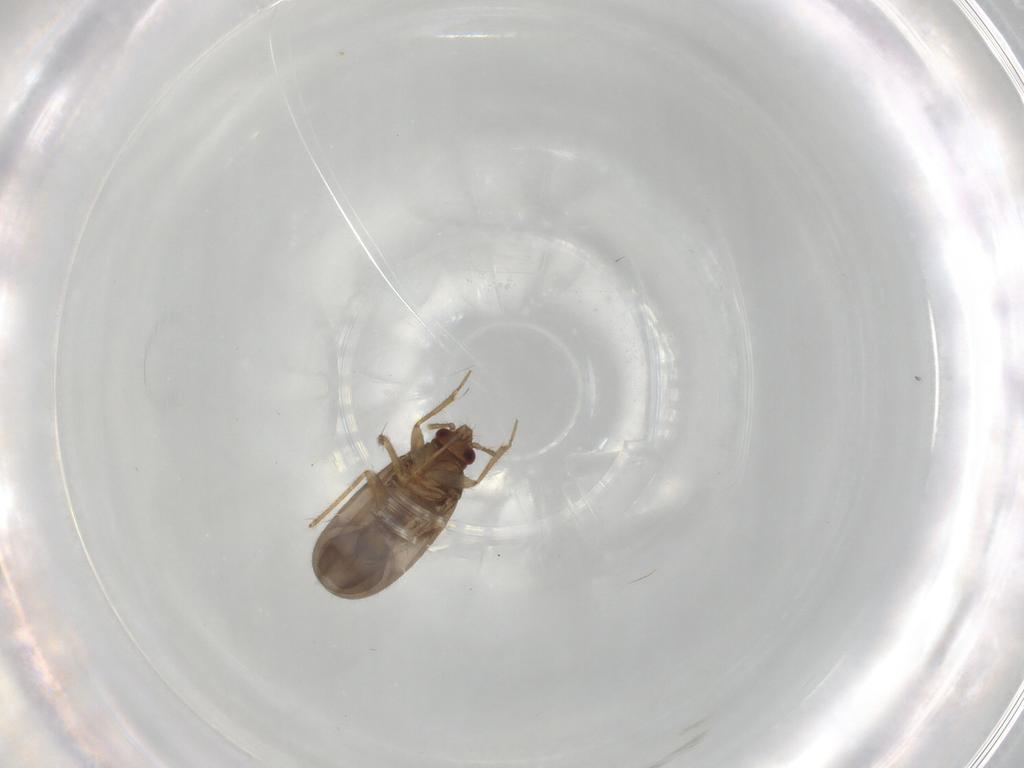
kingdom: Animalia
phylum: Arthropoda
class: Insecta
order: Hemiptera
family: Ceratocombidae
